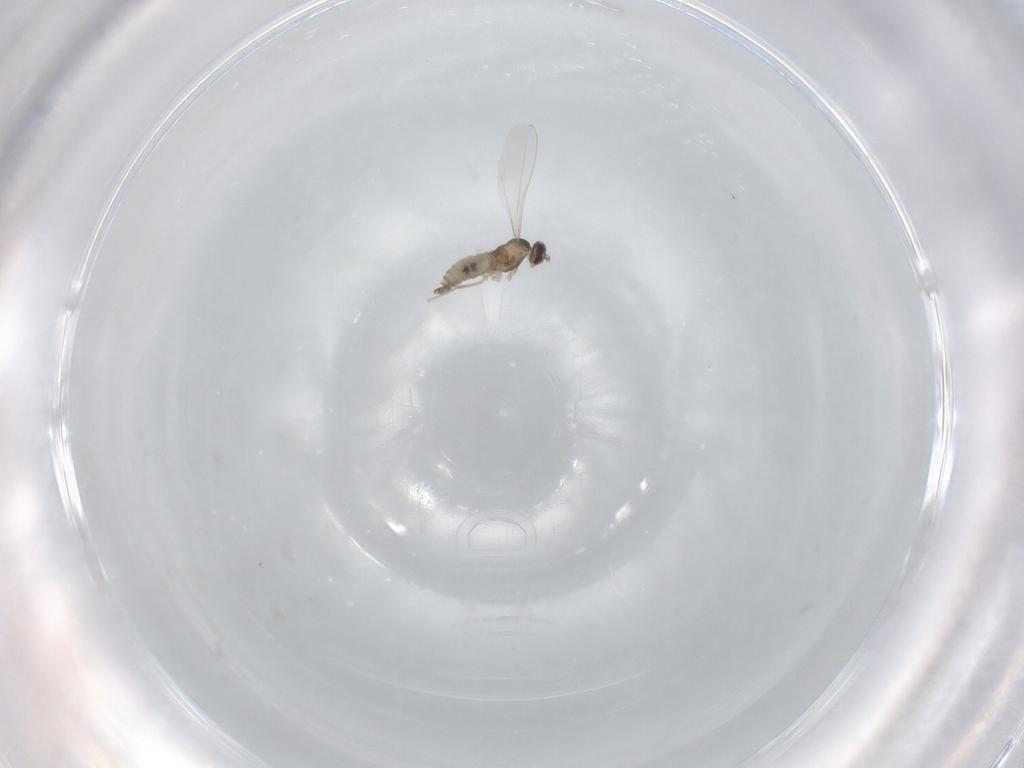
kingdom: Animalia
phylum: Arthropoda
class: Insecta
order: Diptera
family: Cecidomyiidae
